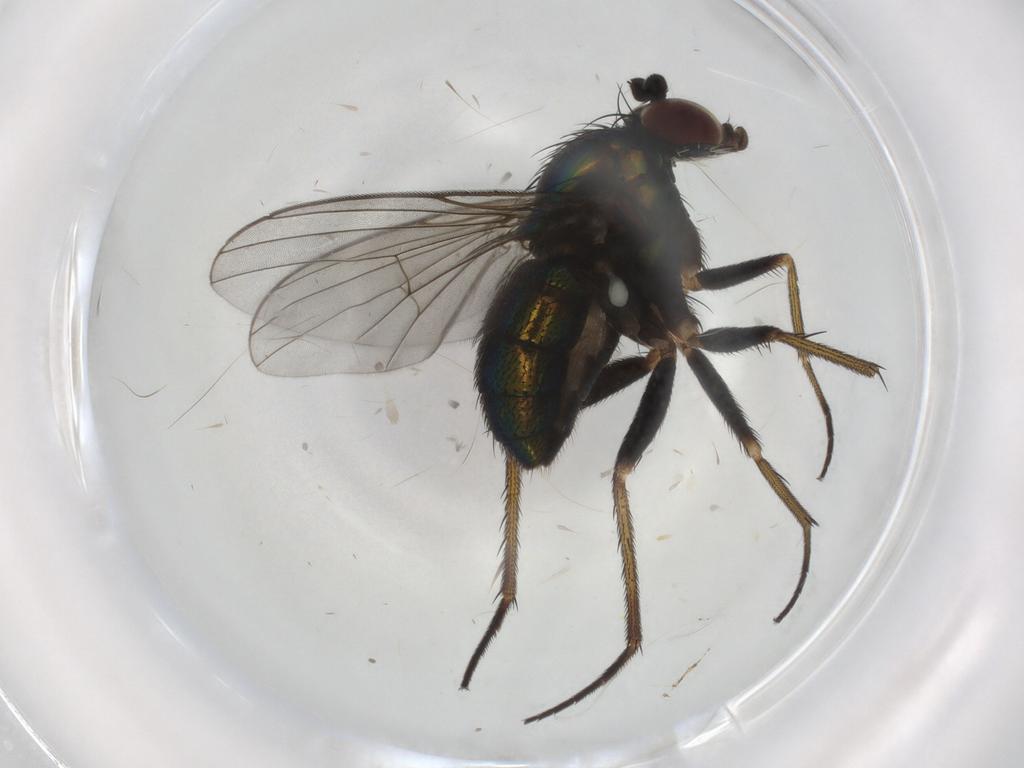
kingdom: Animalia
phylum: Arthropoda
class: Insecta
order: Diptera
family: Dolichopodidae
